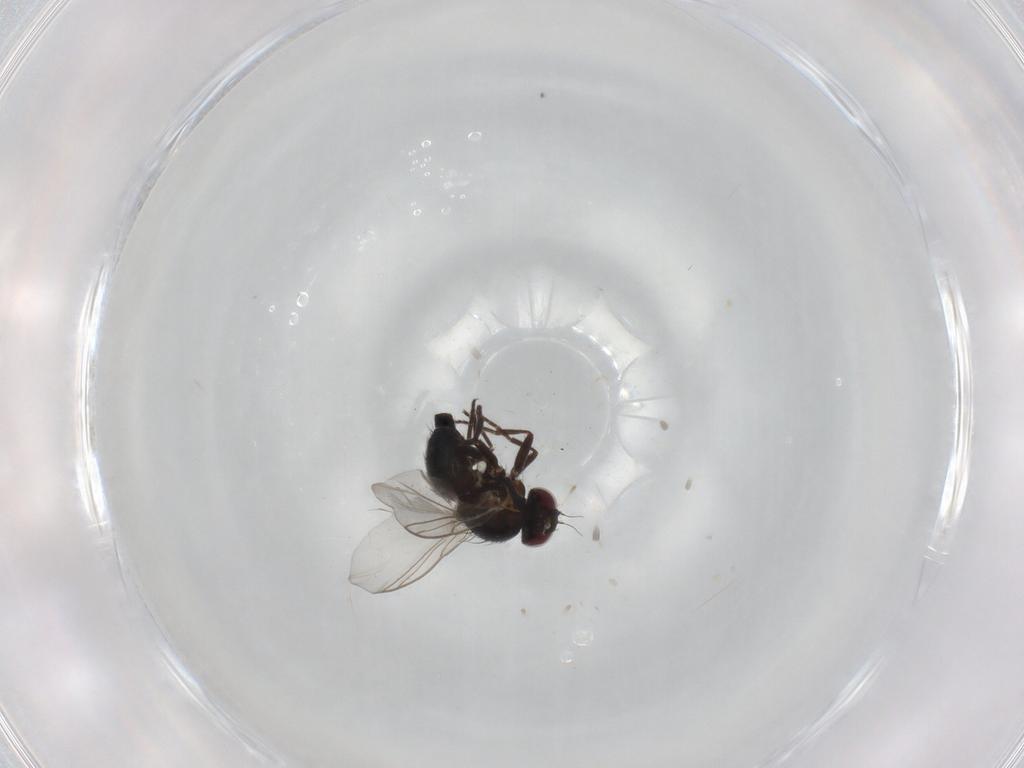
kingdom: Animalia
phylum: Arthropoda
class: Insecta
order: Diptera
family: Agromyzidae
